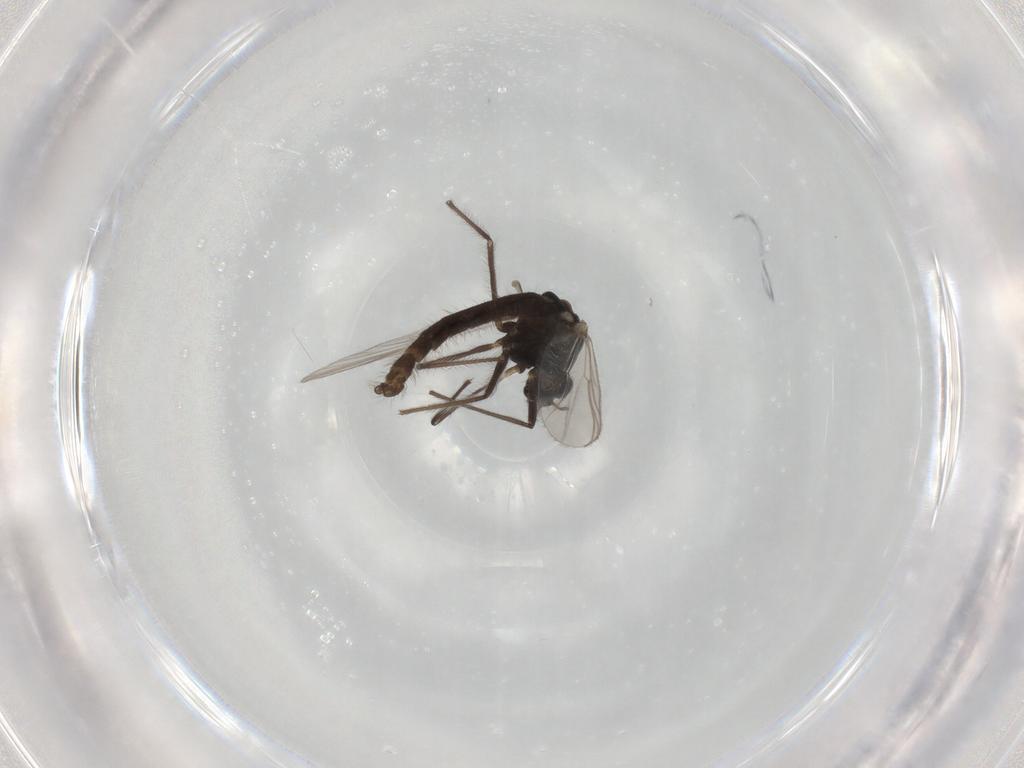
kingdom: Animalia
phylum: Arthropoda
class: Insecta
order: Diptera
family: Chironomidae
